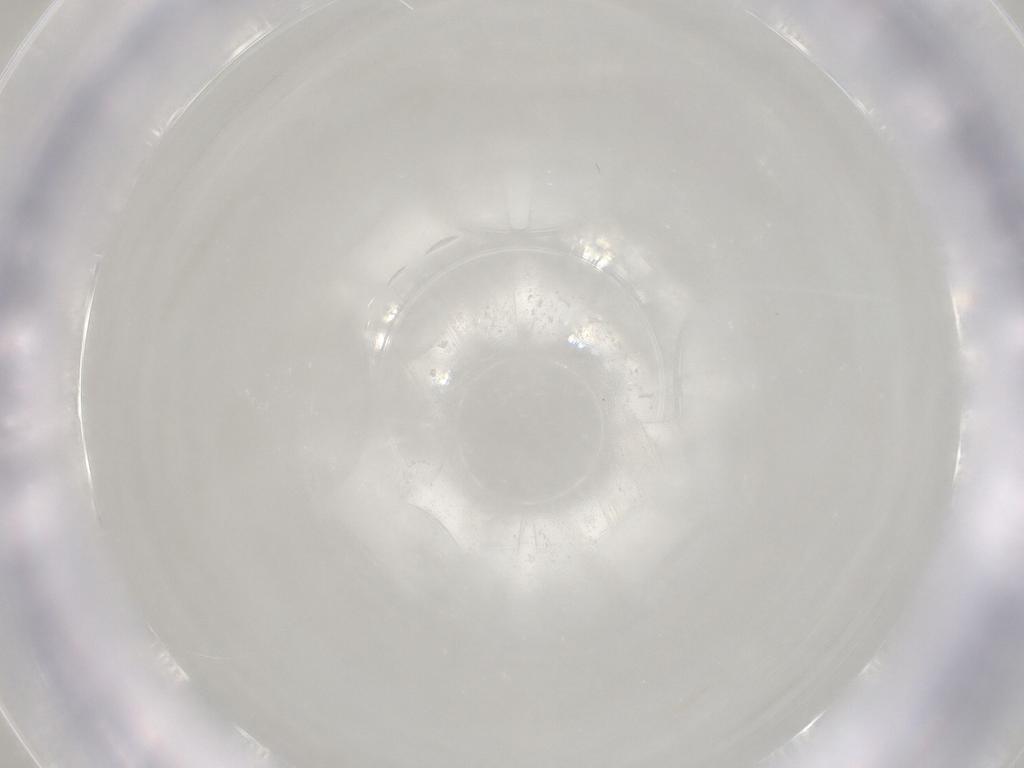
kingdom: Animalia
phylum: Arthropoda
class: Insecta
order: Diptera
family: Ceratopogonidae
